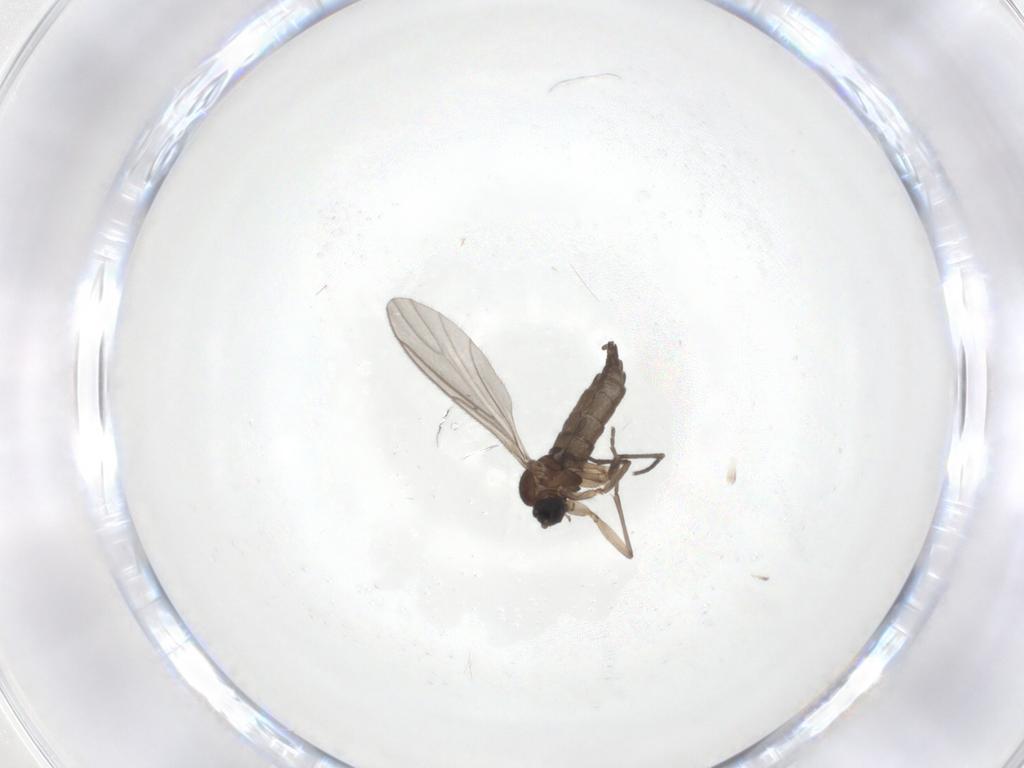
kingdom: Animalia
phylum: Arthropoda
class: Insecta
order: Diptera
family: Sciaridae
